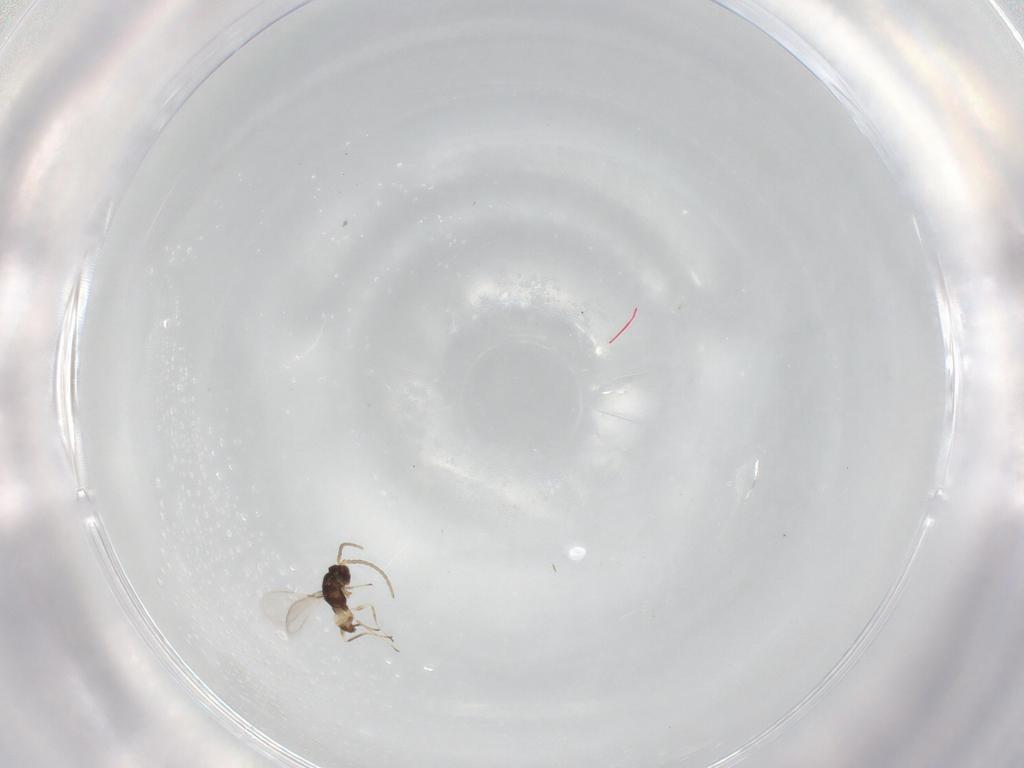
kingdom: Animalia
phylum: Arthropoda
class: Insecta
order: Hymenoptera
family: Mymaridae
